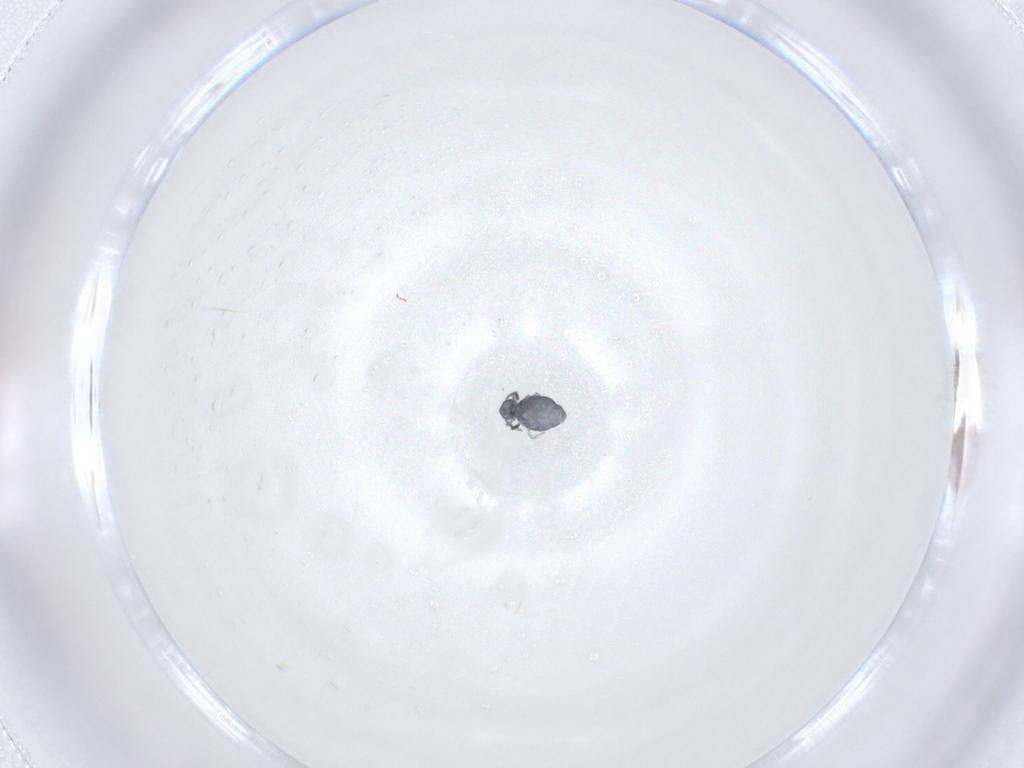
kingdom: Animalia
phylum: Arthropoda
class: Collembola
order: Symphypleona
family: Katiannidae
